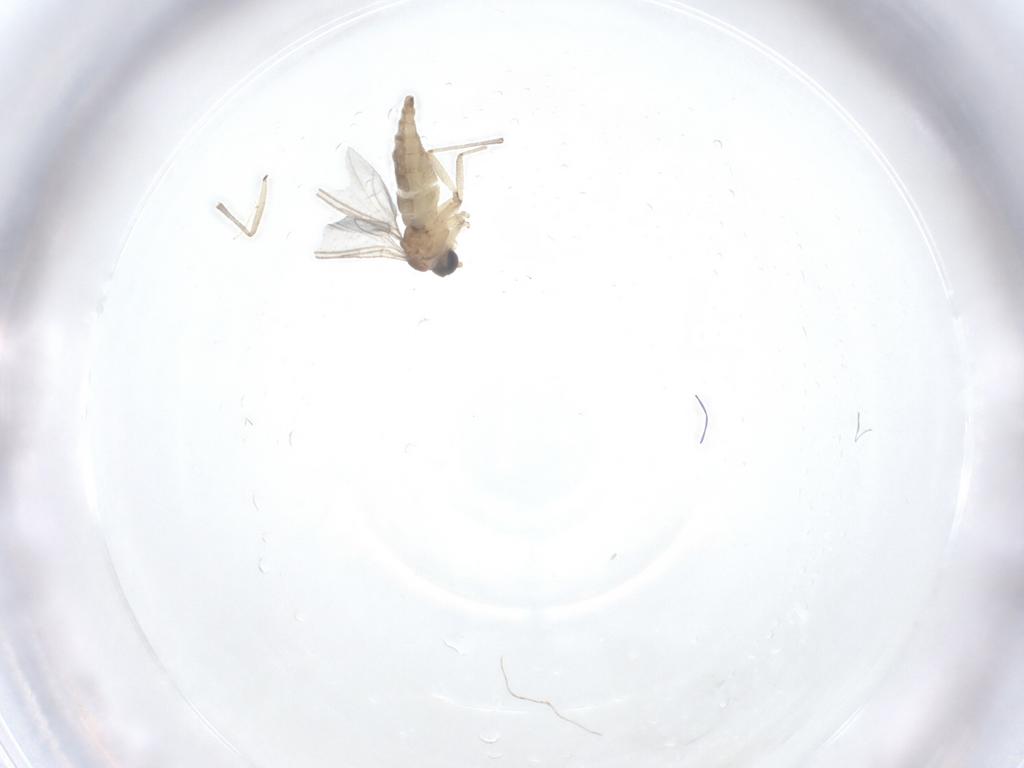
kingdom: Animalia
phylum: Arthropoda
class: Insecta
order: Diptera
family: Sciaridae
